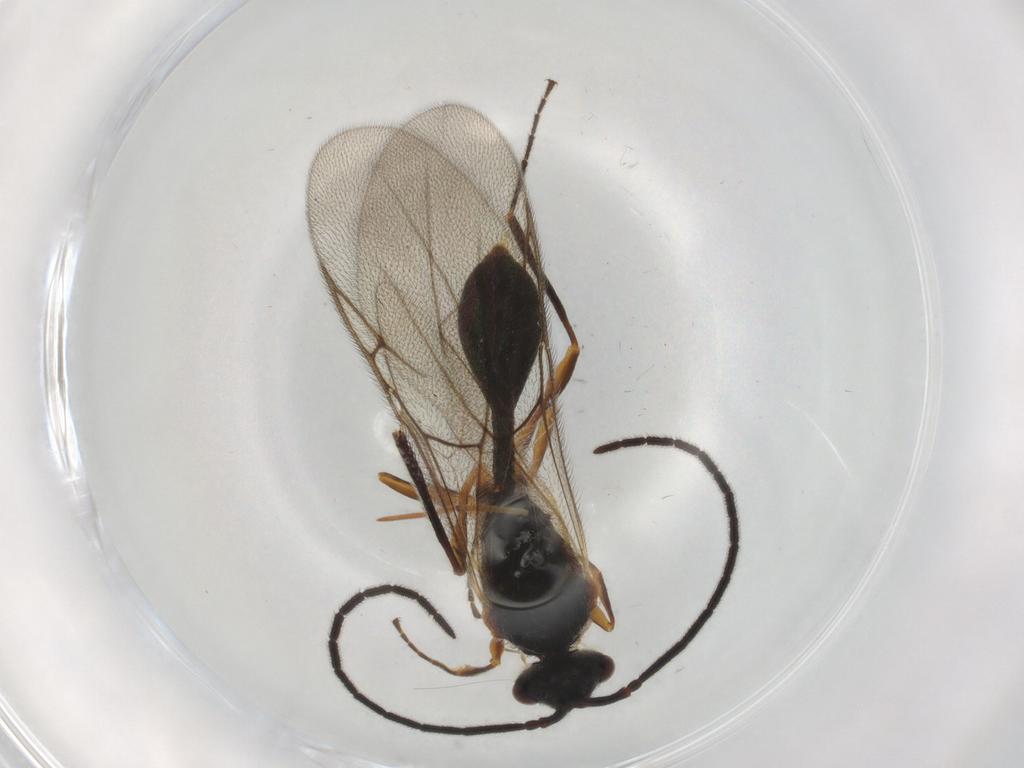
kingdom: Animalia
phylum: Arthropoda
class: Insecta
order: Hymenoptera
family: Diapriidae
